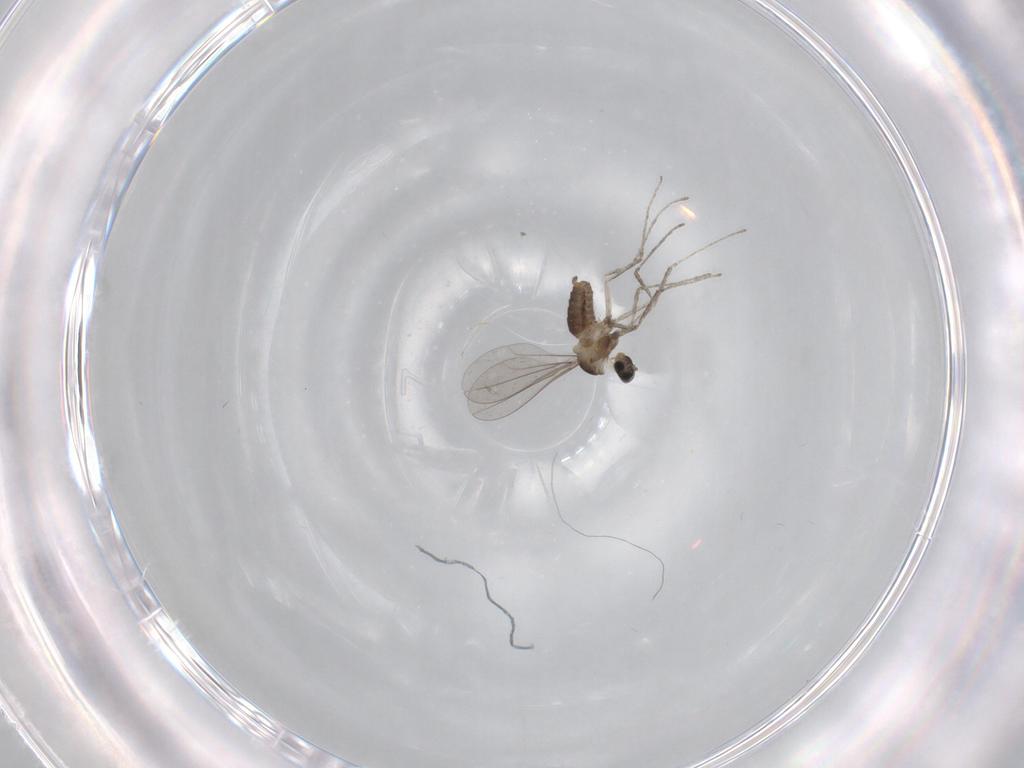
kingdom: Animalia
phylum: Arthropoda
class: Insecta
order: Diptera
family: Cecidomyiidae
